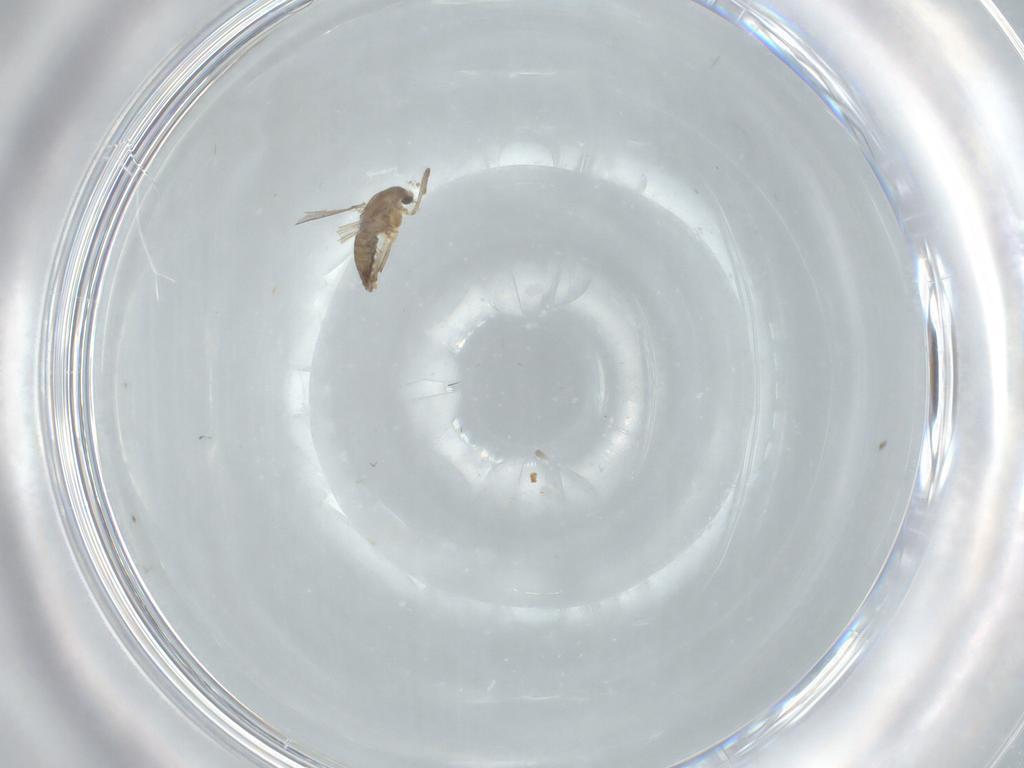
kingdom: Animalia
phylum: Arthropoda
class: Insecta
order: Diptera
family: Chironomidae
